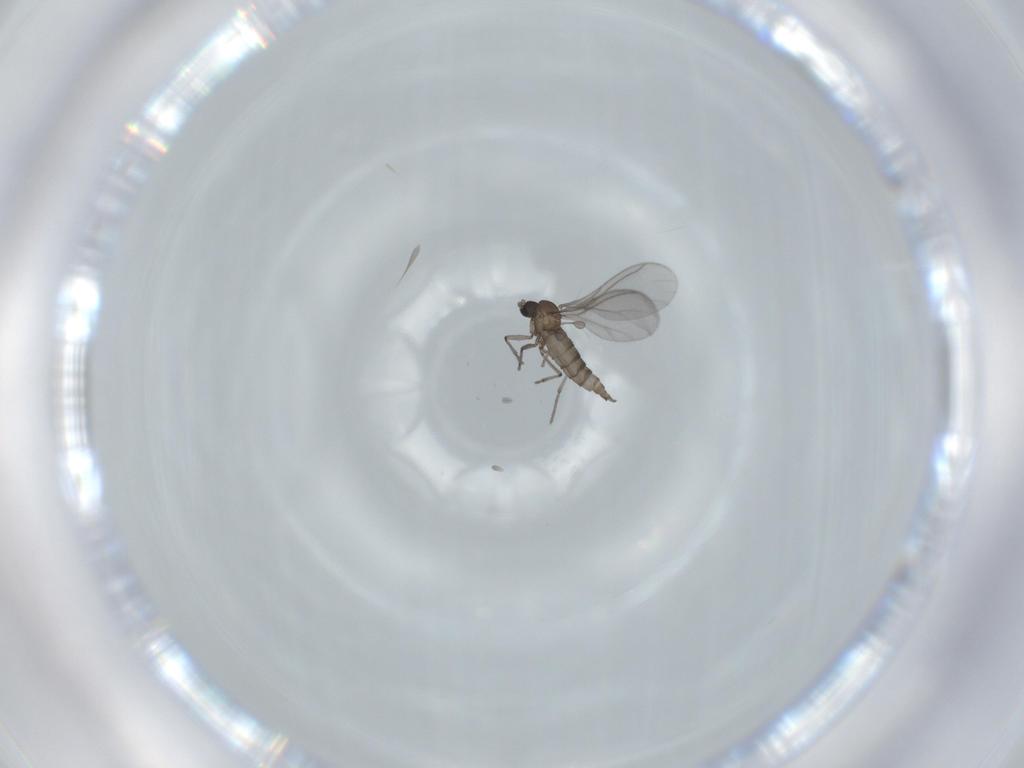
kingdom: Animalia
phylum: Arthropoda
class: Insecta
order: Diptera
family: Sciaridae
